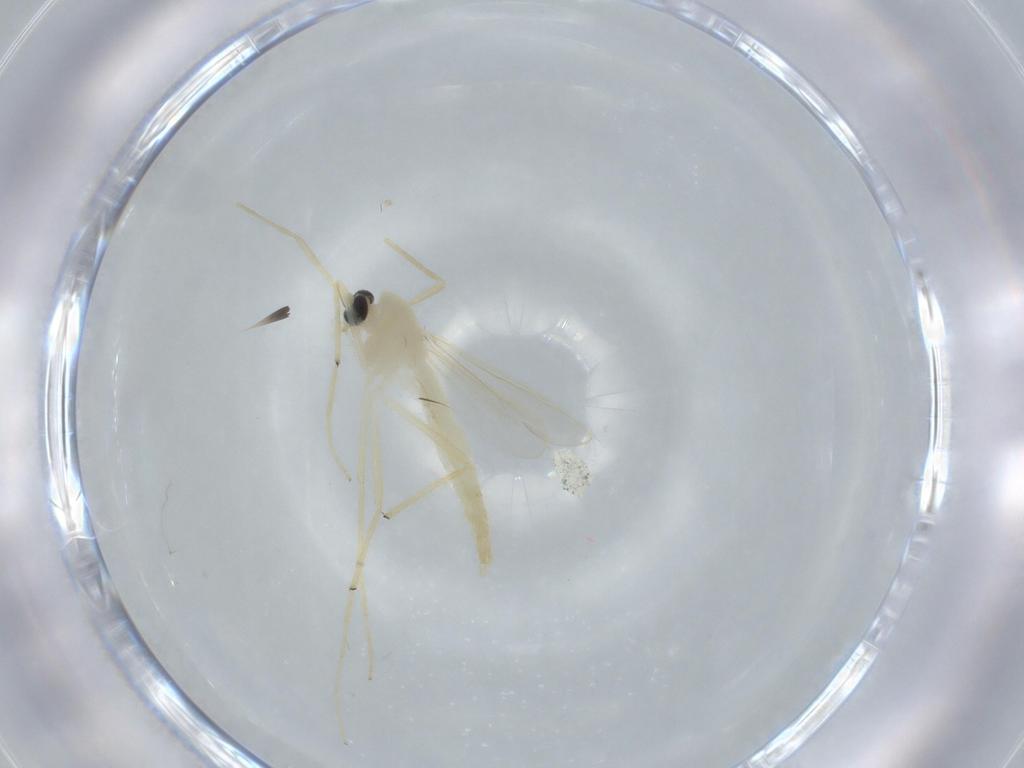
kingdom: Animalia
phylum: Arthropoda
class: Insecta
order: Diptera
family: Chironomidae
